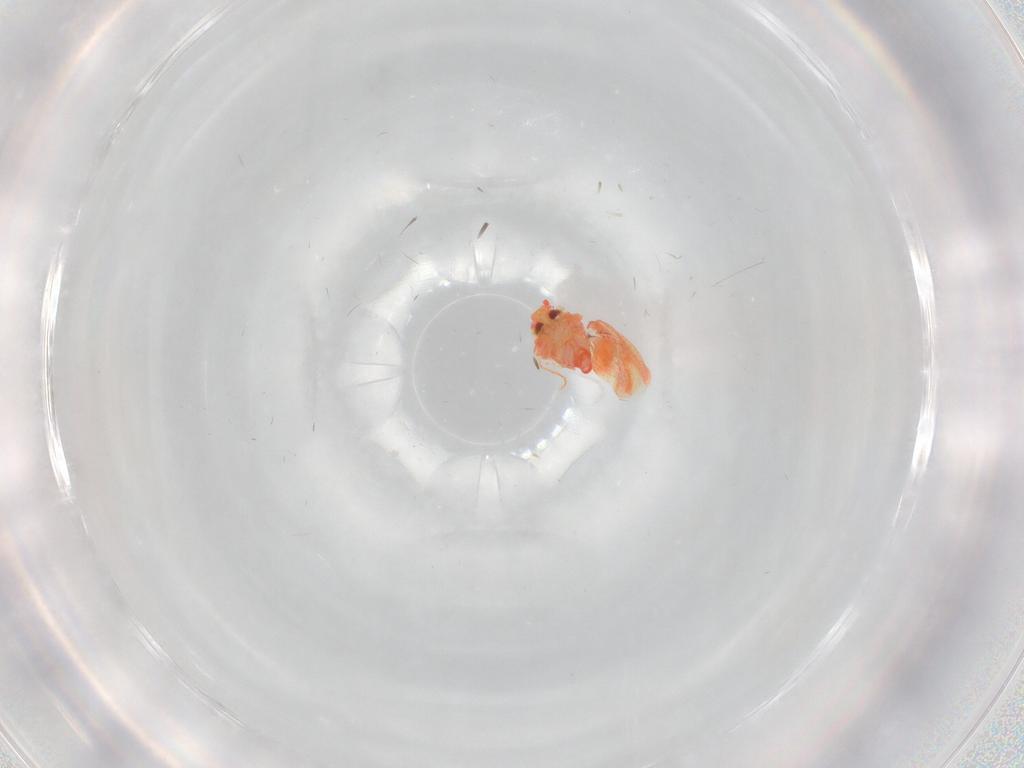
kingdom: Animalia
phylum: Arthropoda
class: Insecta
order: Hemiptera
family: Aleyrodidae
